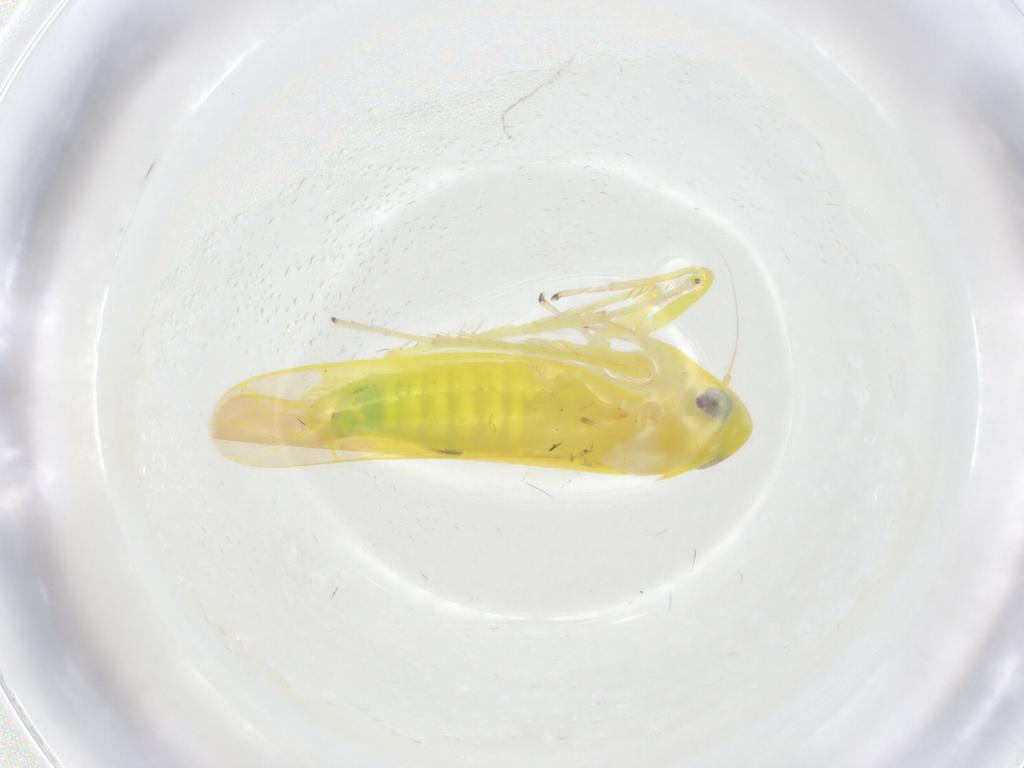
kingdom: Animalia
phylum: Arthropoda
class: Insecta
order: Hemiptera
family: Cicadellidae
